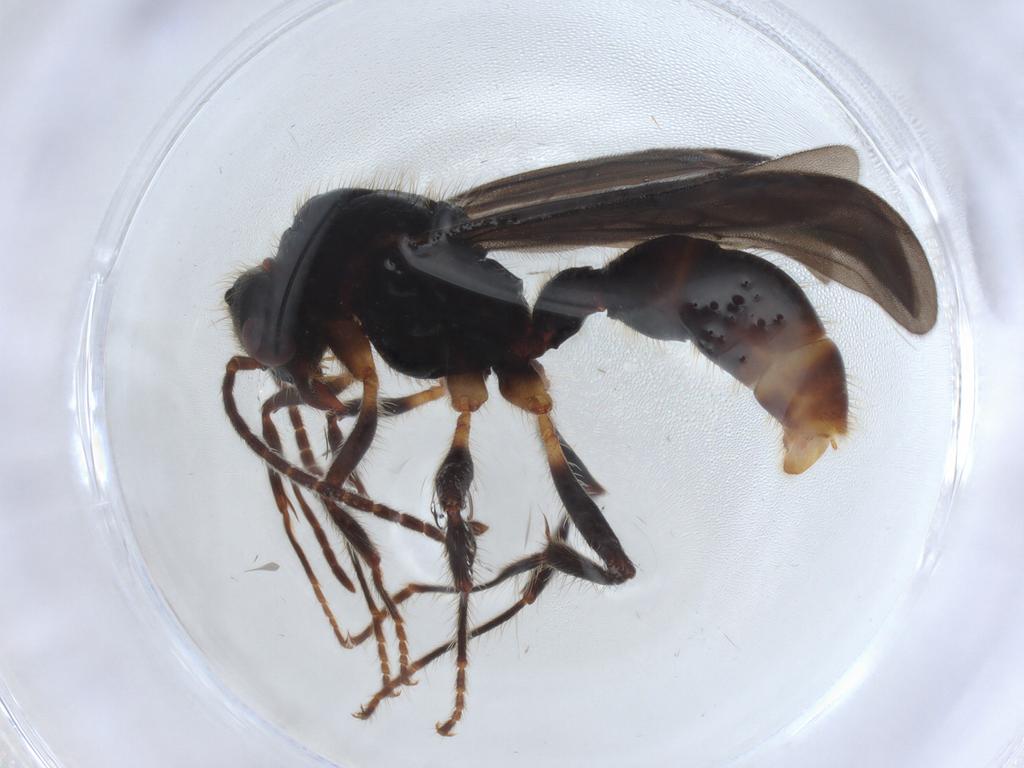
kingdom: Animalia
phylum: Arthropoda
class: Insecta
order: Hymenoptera
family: Formicidae
